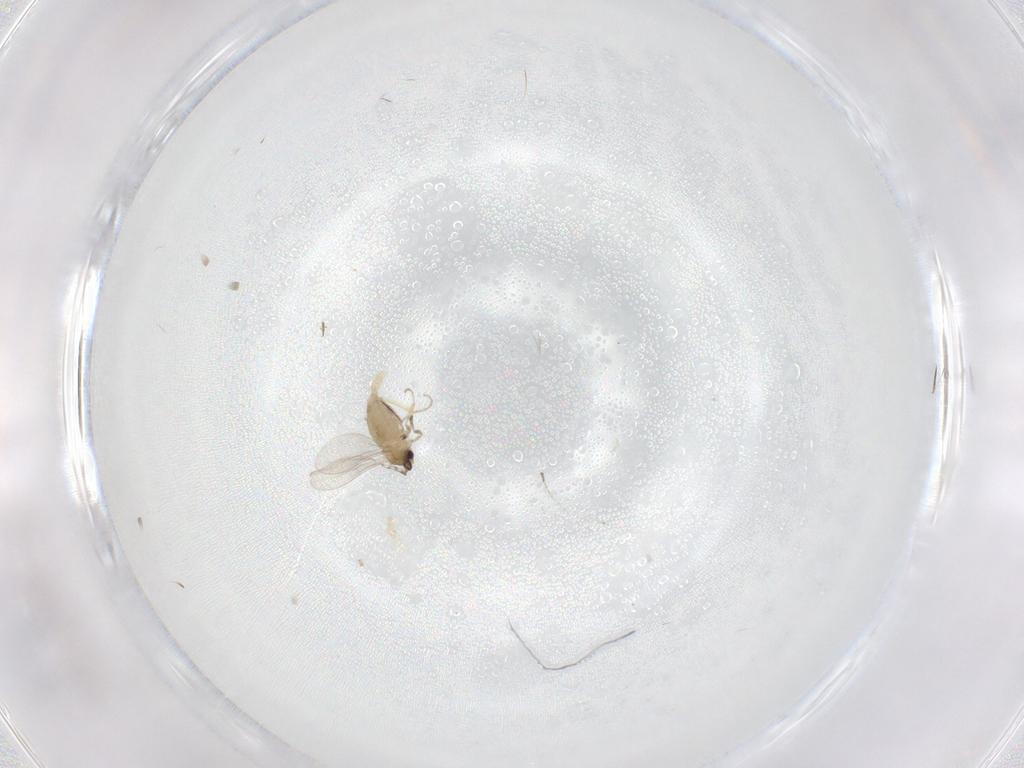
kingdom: Animalia
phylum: Arthropoda
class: Insecta
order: Diptera
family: Cecidomyiidae
